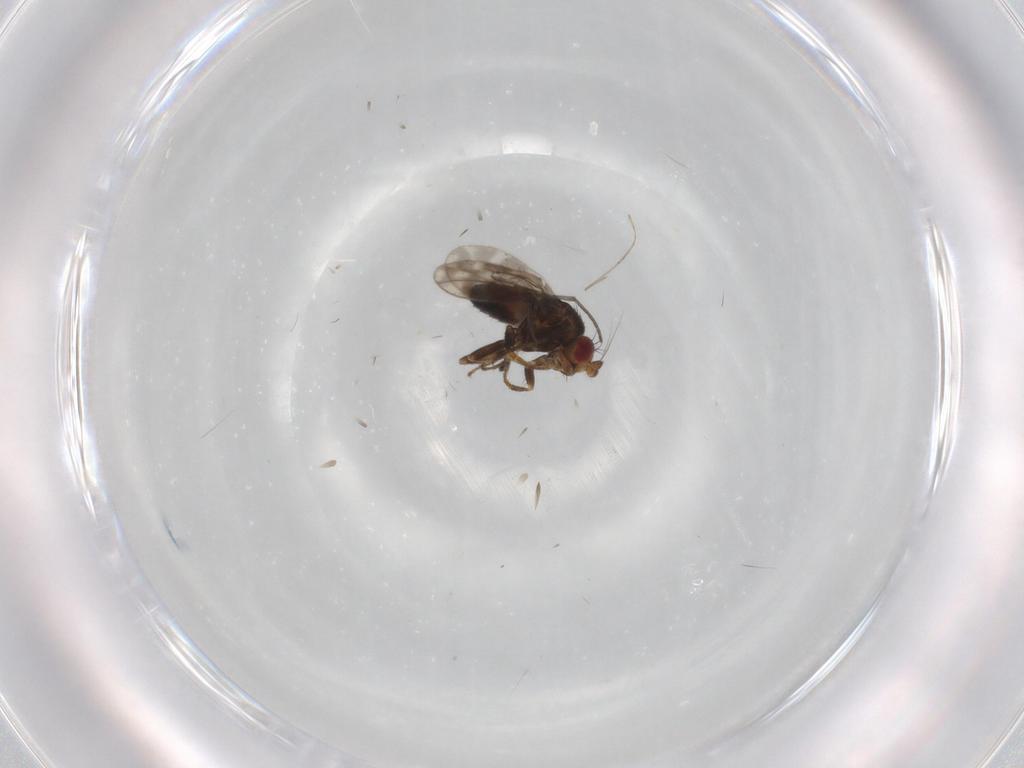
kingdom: Animalia
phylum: Arthropoda
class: Insecta
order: Diptera
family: Sphaeroceridae
